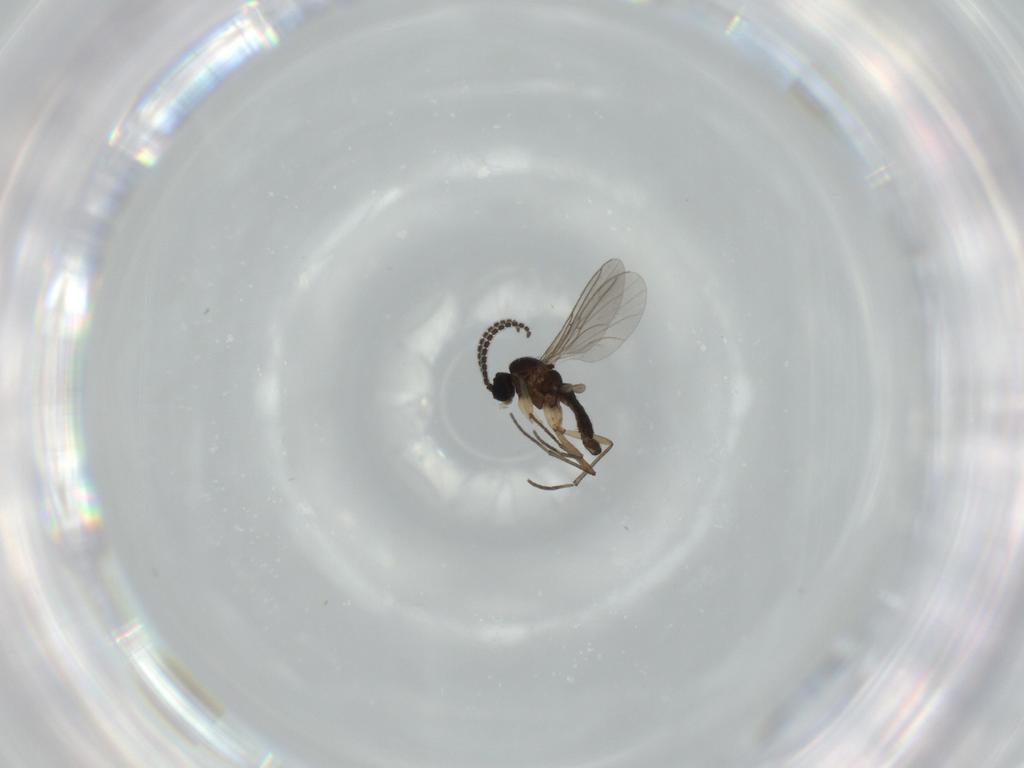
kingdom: Animalia
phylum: Arthropoda
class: Insecta
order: Diptera
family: Sciaridae
